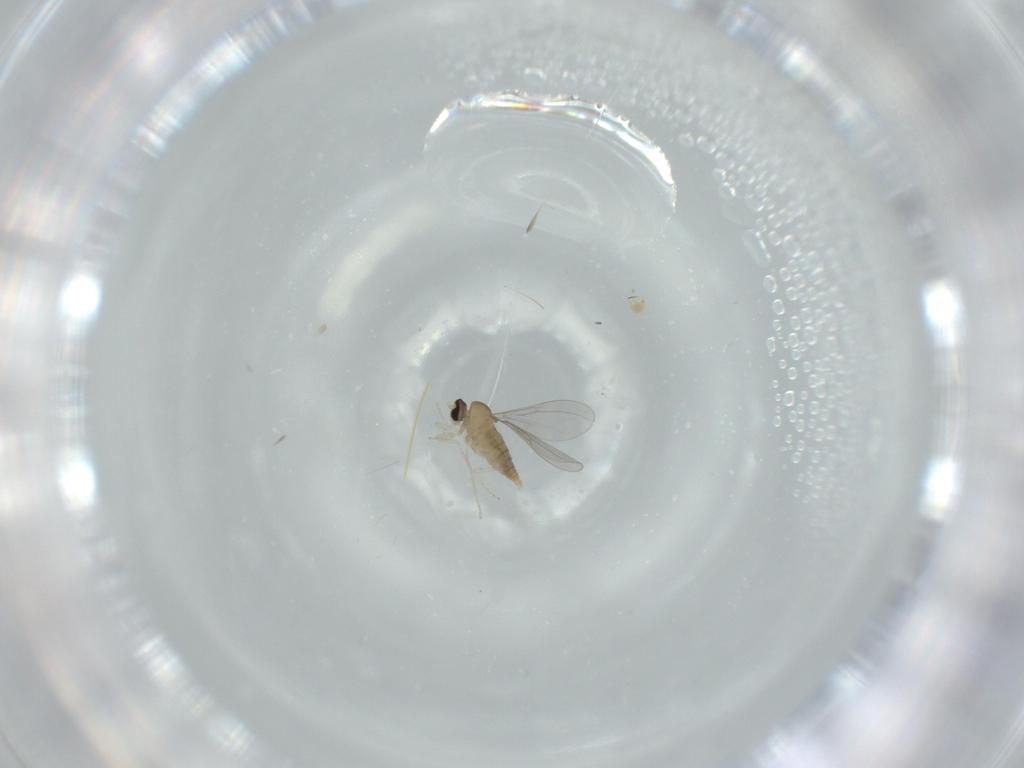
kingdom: Animalia
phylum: Arthropoda
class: Insecta
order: Diptera
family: Cecidomyiidae
